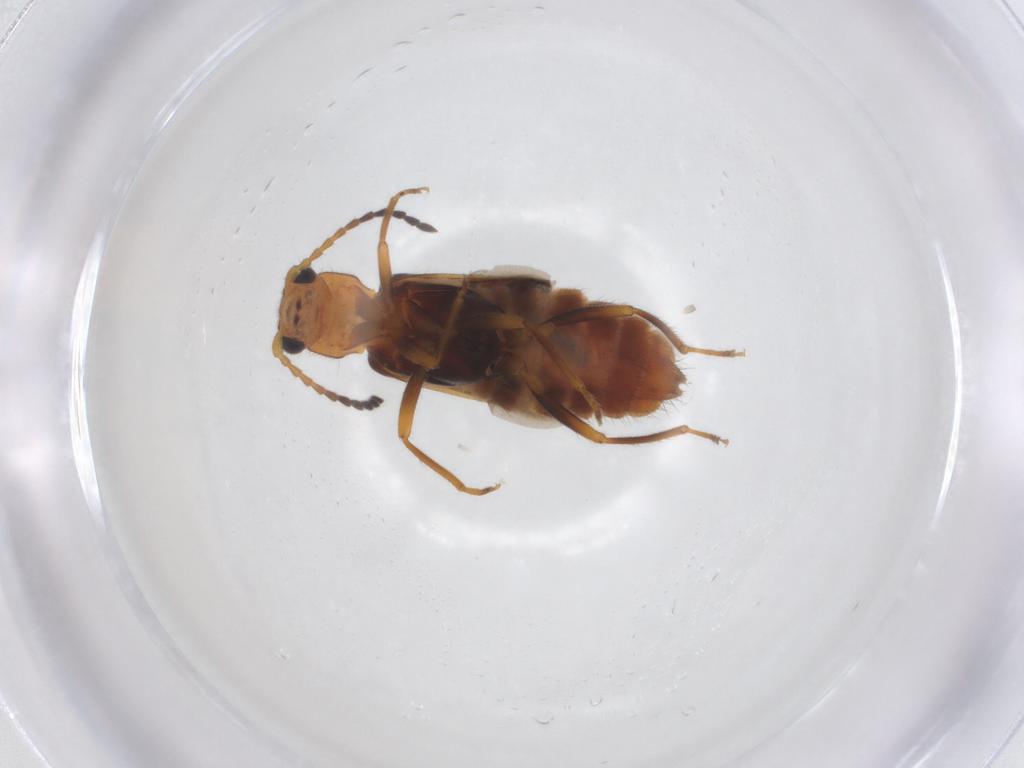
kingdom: Animalia
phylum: Arthropoda
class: Insecta
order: Coleoptera
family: Melyridae
